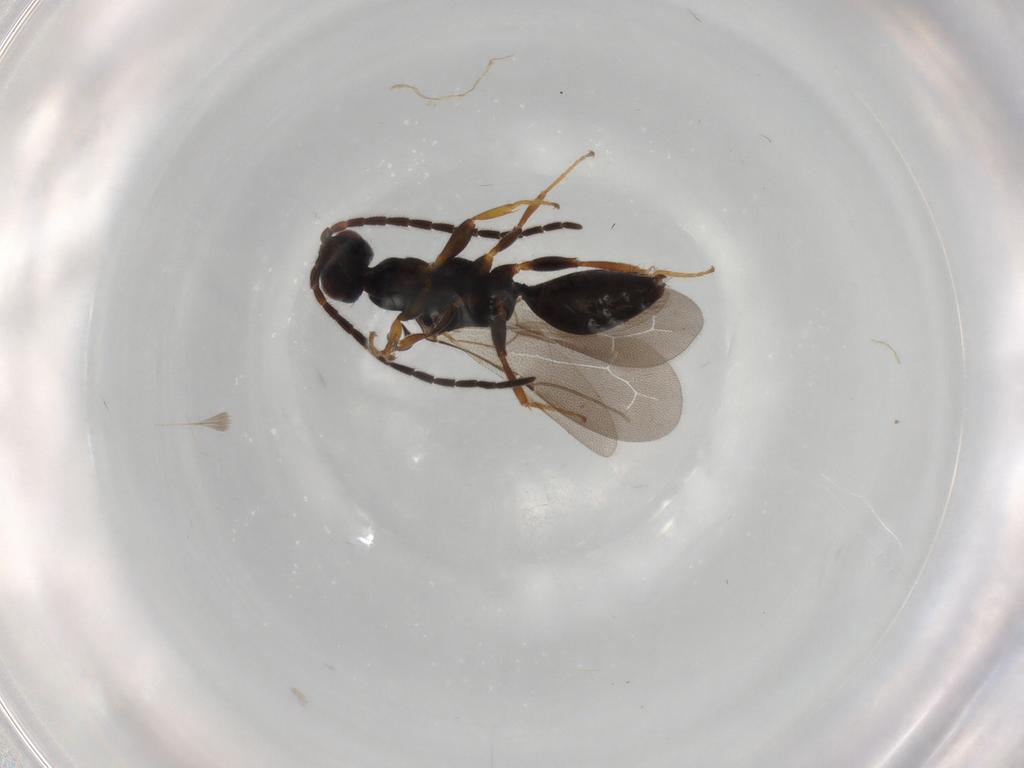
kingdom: Animalia
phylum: Arthropoda
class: Insecta
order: Hymenoptera
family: Bethylidae
